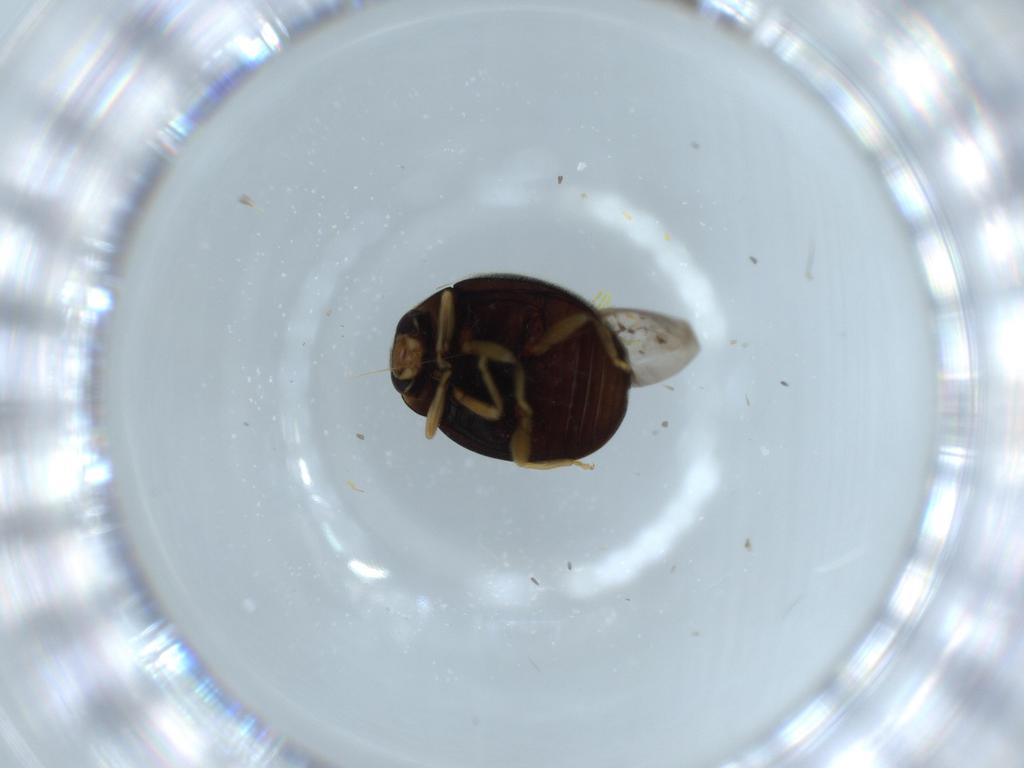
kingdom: Animalia
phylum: Arthropoda
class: Insecta
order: Coleoptera
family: Coccinellidae
